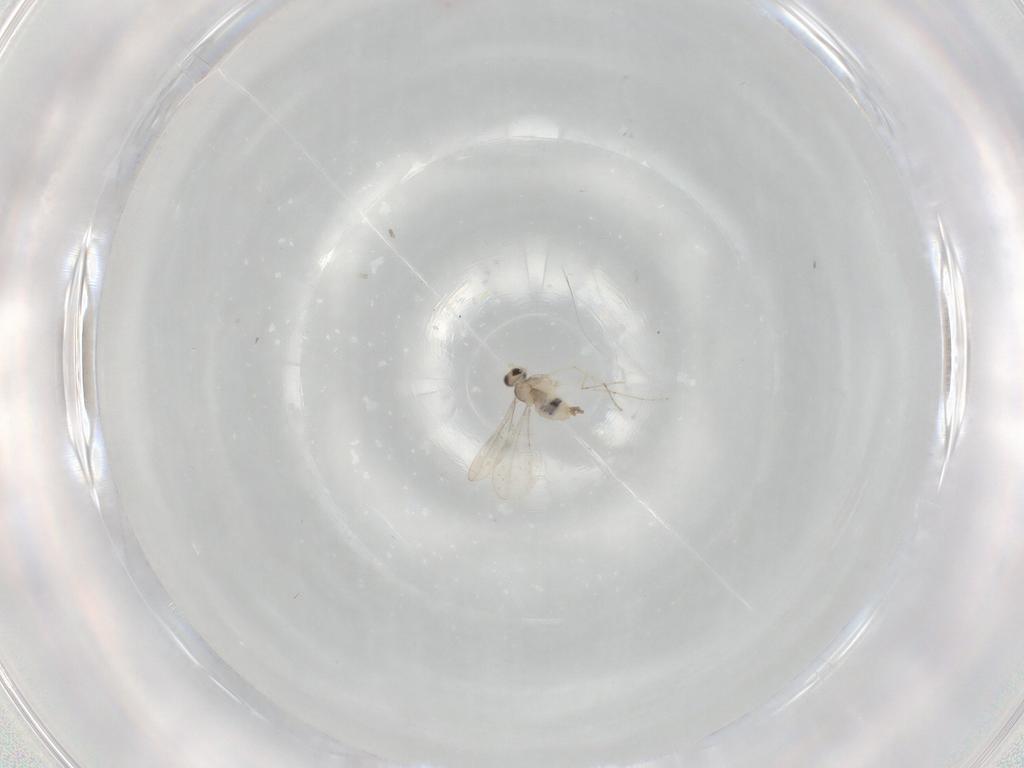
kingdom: Animalia
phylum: Arthropoda
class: Insecta
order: Diptera
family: Cecidomyiidae
